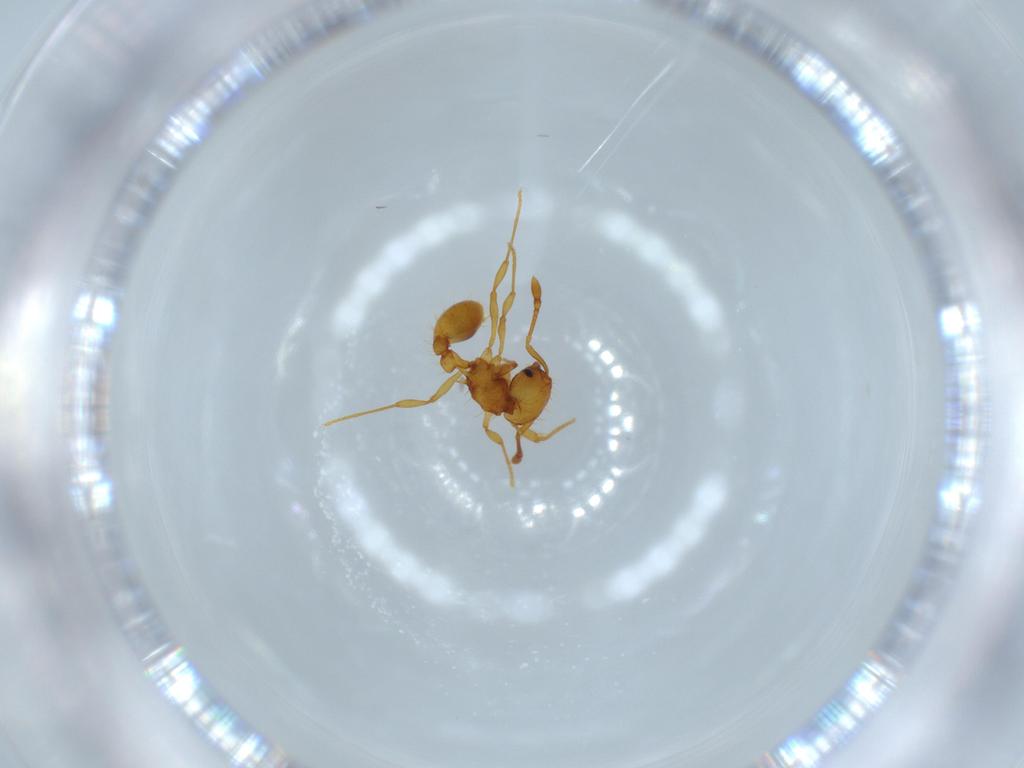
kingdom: Animalia
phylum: Arthropoda
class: Insecta
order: Hymenoptera
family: Formicidae
